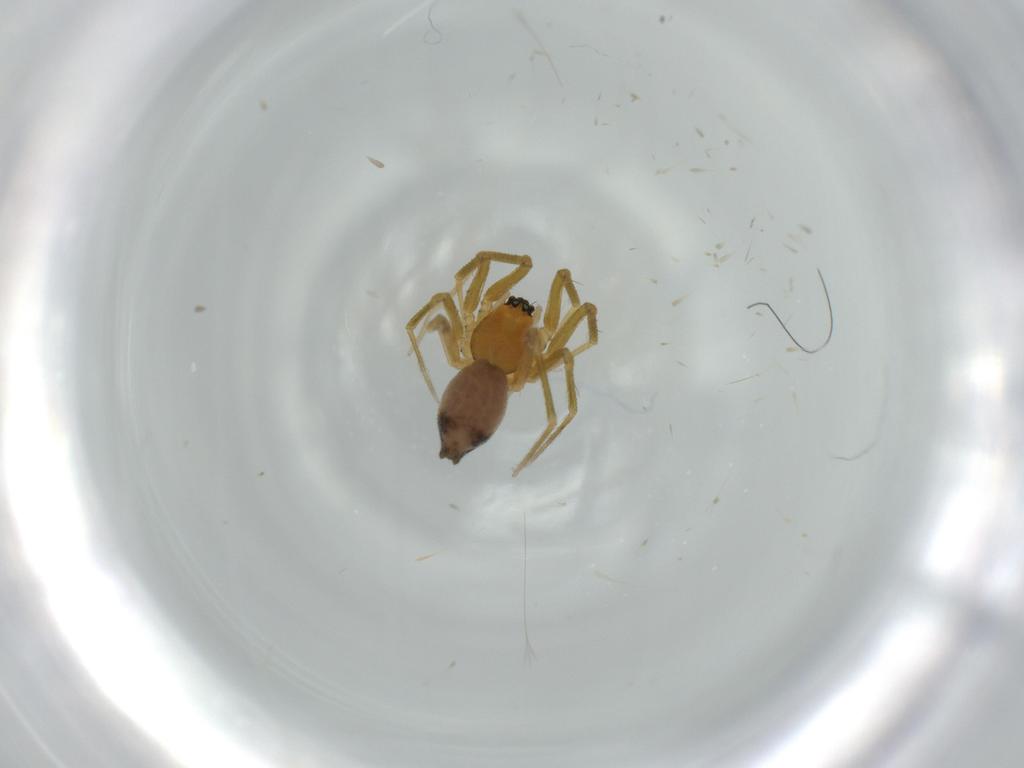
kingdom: Animalia
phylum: Arthropoda
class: Arachnida
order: Araneae
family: Linyphiidae
